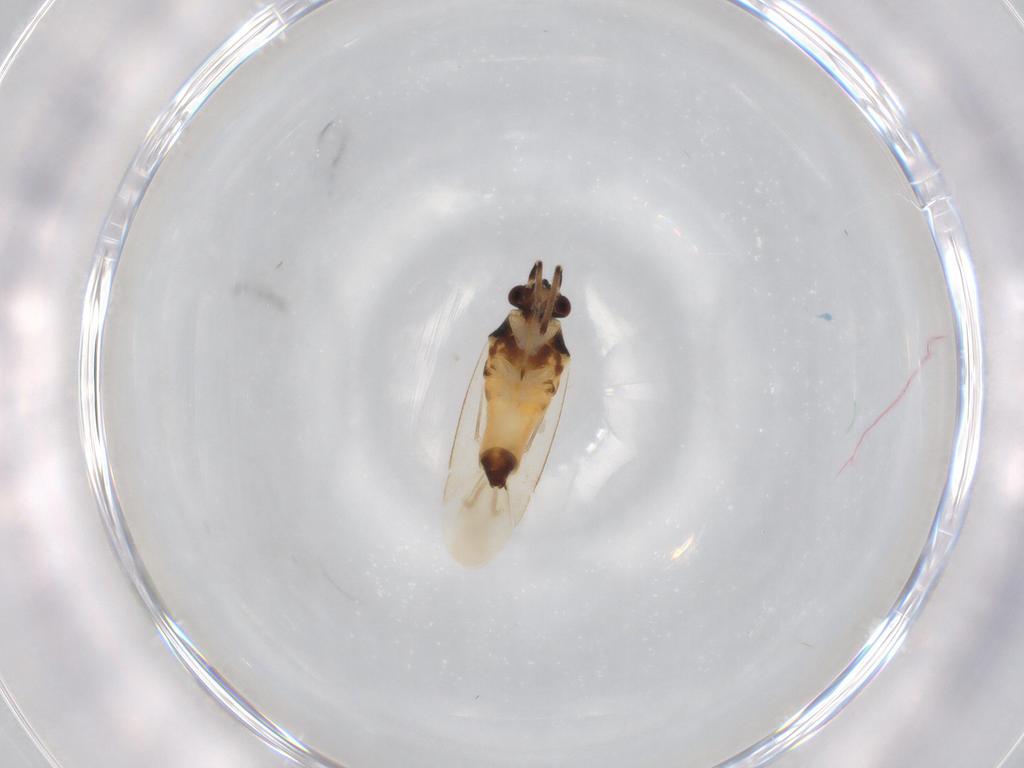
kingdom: Animalia
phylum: Arthropoda
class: Insecta
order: Hemiptera
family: Miridae
